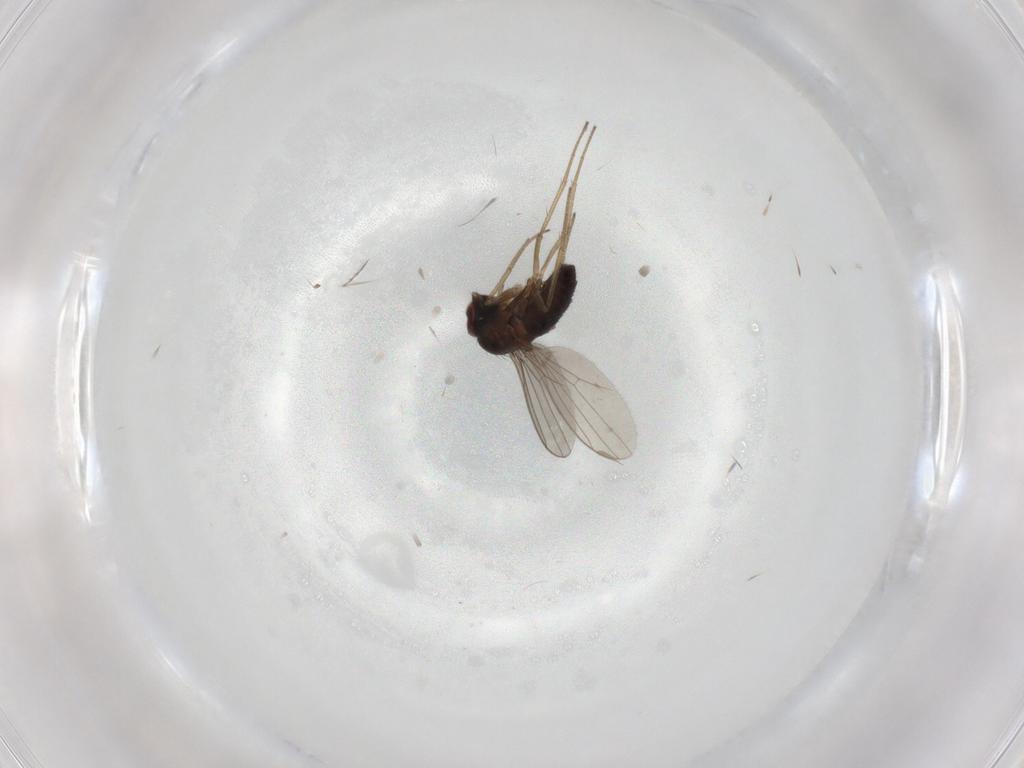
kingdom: Animalia
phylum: Arthropoda
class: Insecta
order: Diptera
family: Dolichopodidae
